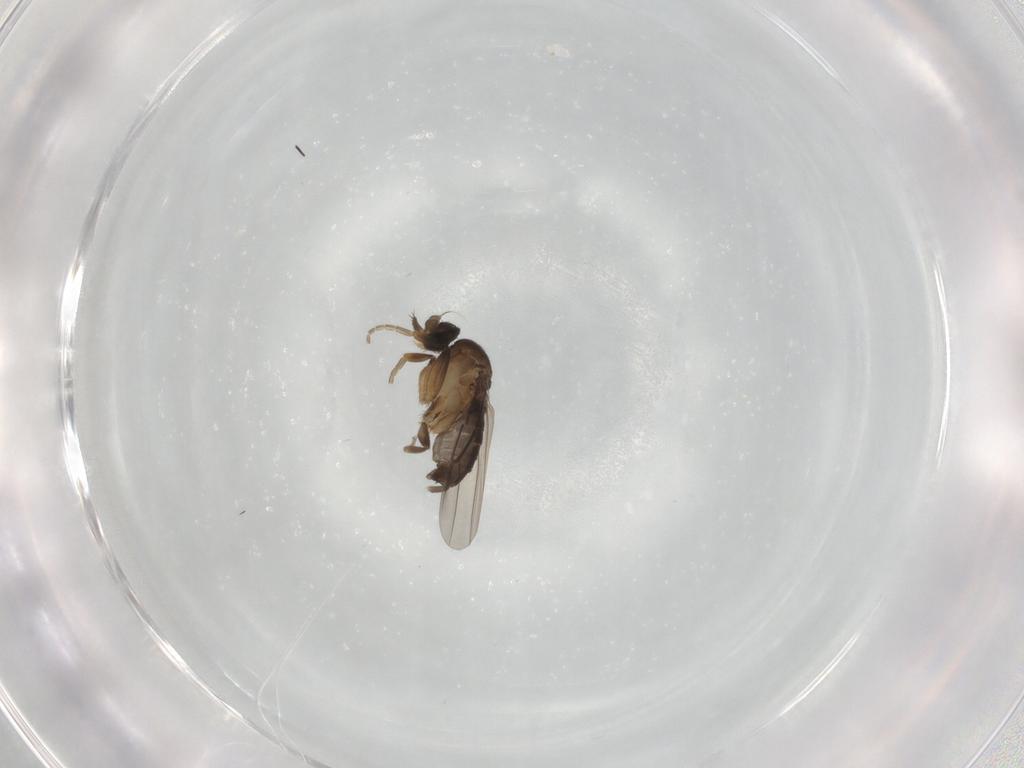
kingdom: Animalia
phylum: Arthropoda
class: Insecta
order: Diptera
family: Phoridae
